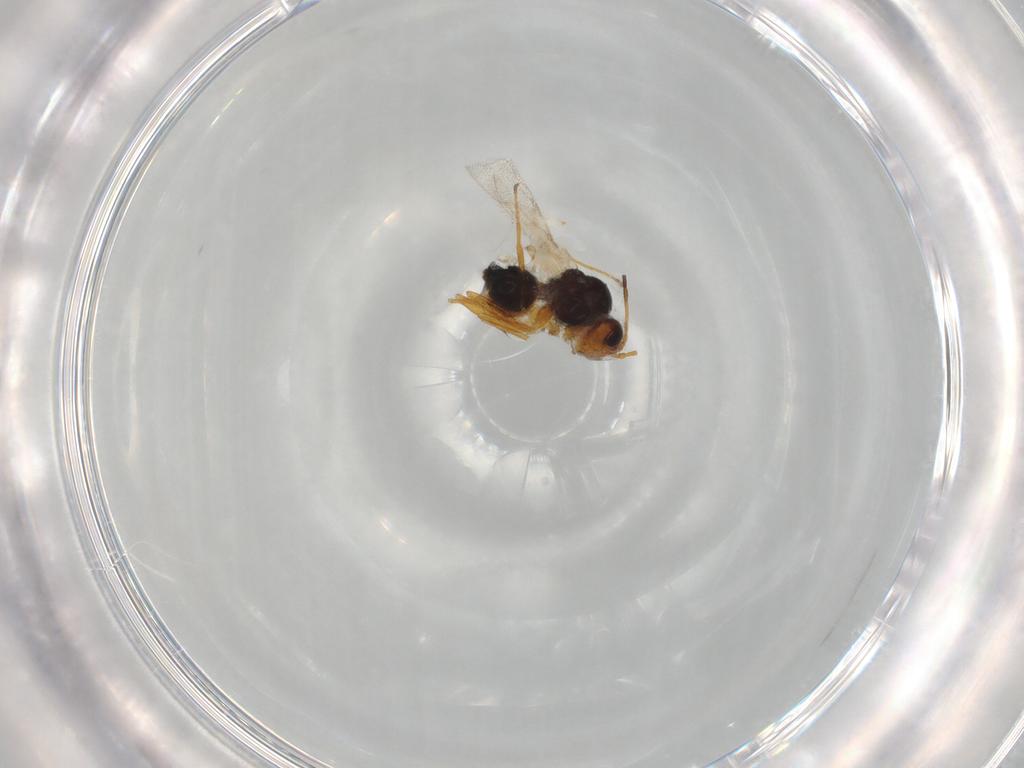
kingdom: Animalia
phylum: Arthropoda
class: Insecta
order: Hymenoptera
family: Figitidae
